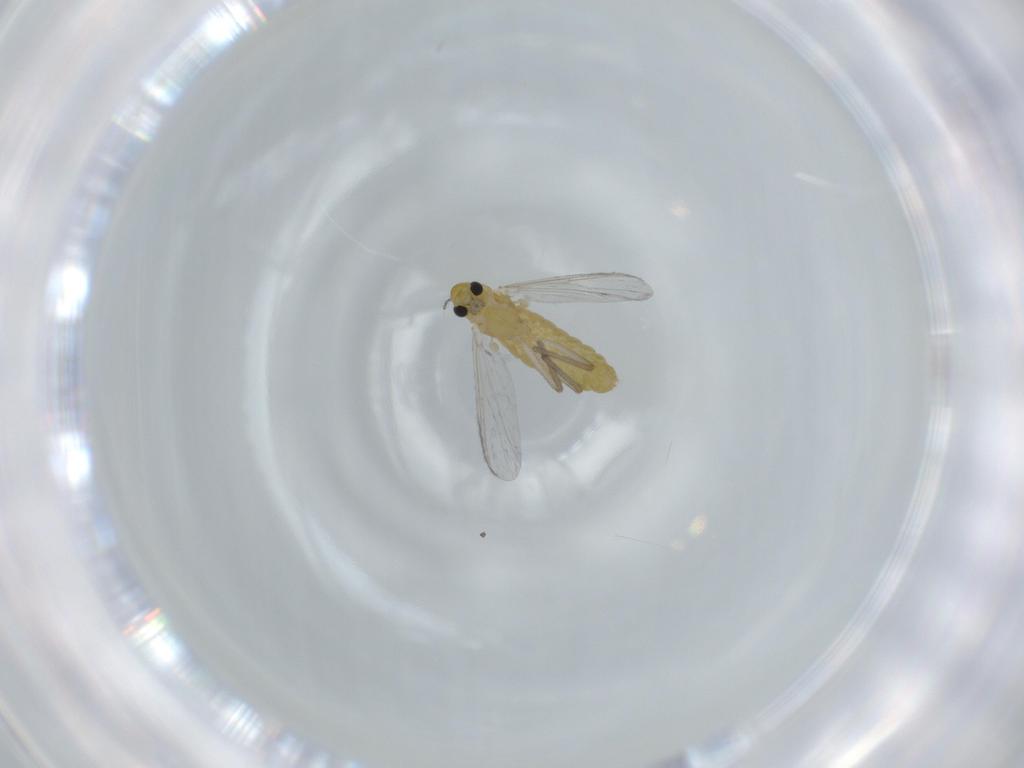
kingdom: Animalia
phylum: Arthropoda
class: Insecta
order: Diptera
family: Chironomidae
